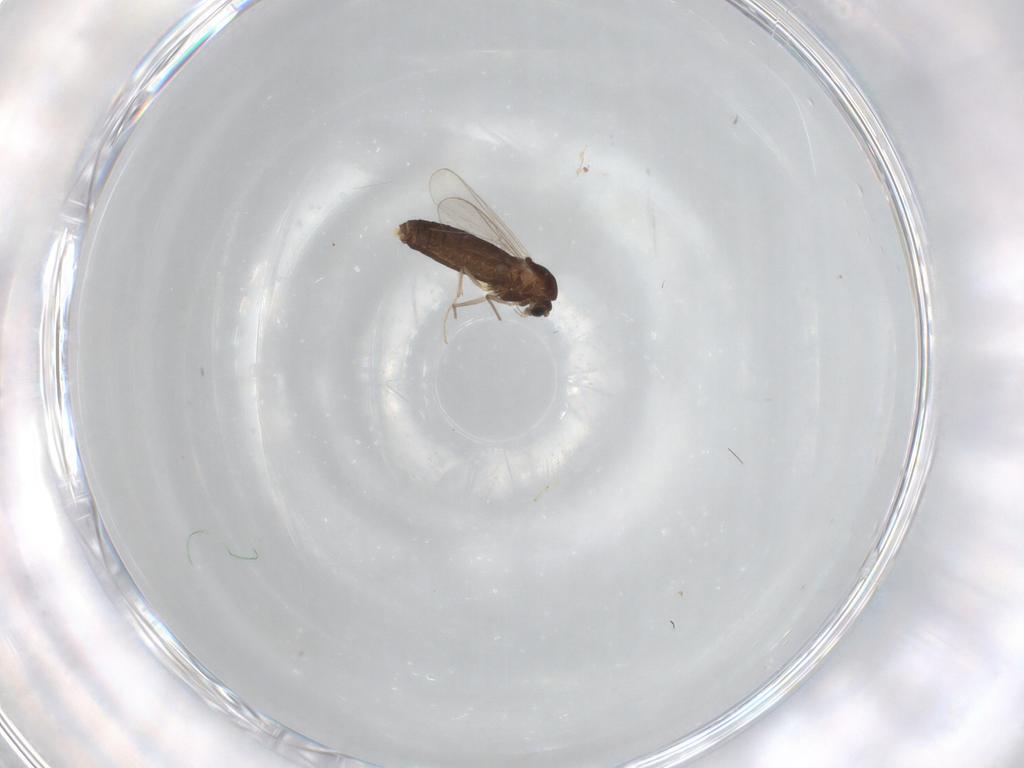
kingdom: Animalia
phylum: Arthropoda
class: Insecta
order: Diptera
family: Chironomidae
